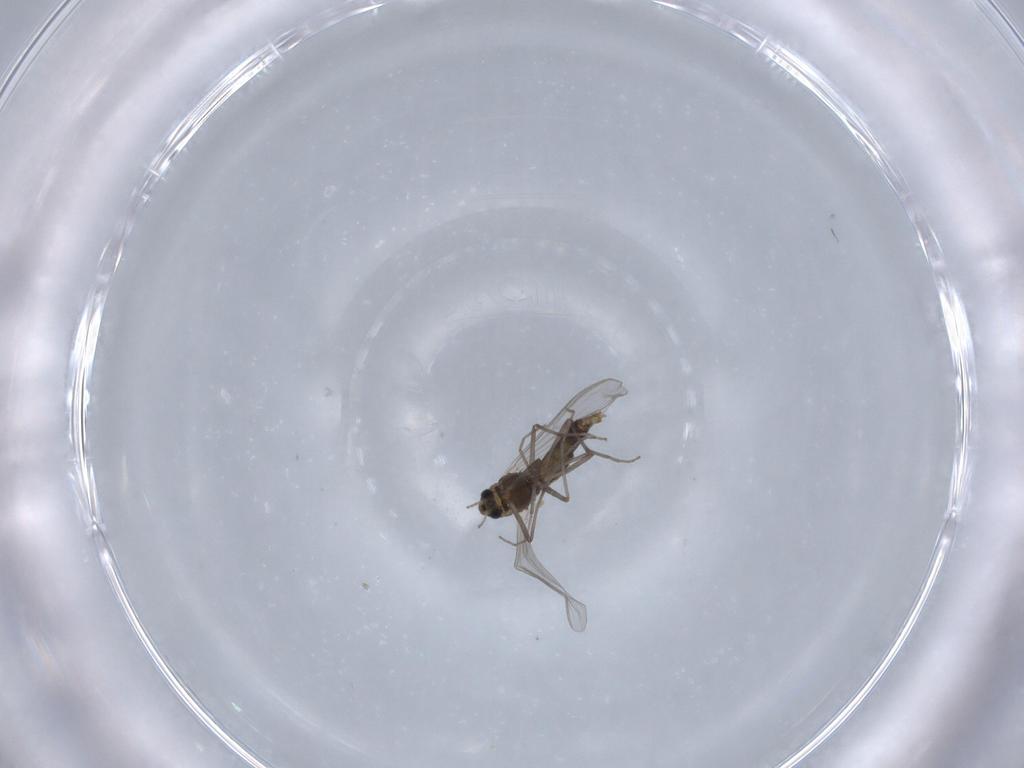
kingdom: Animalia
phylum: Arthropoda
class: Insecta
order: Diptera
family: Chironomidae
